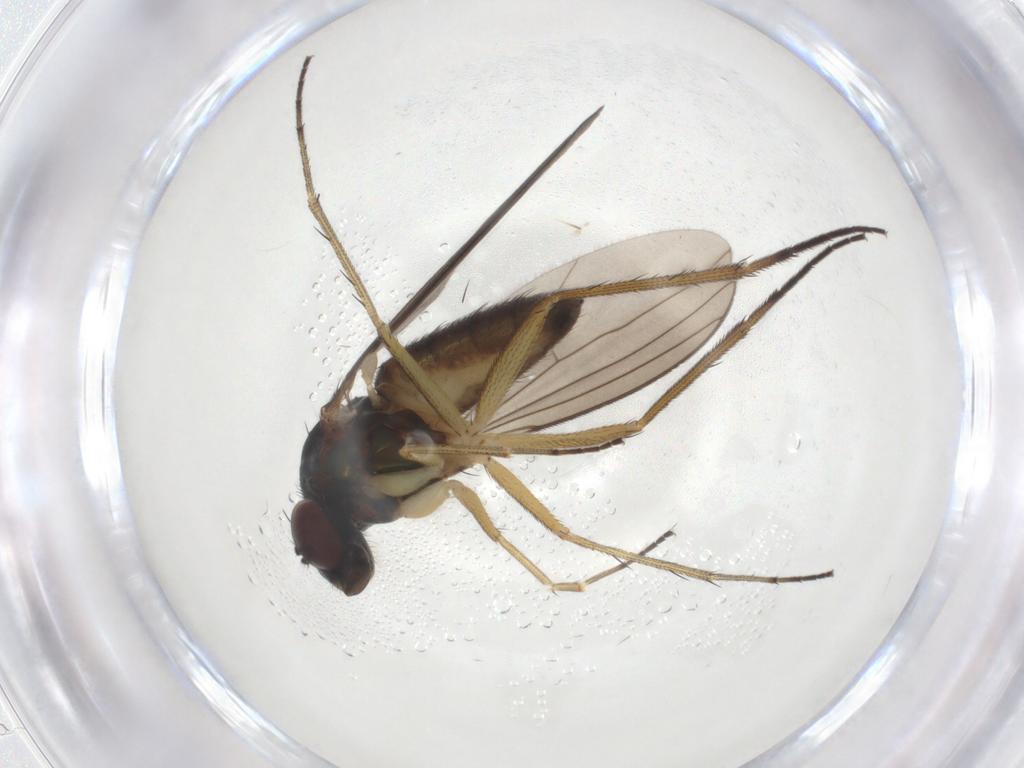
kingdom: Animalia
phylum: Arthropoda
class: Insecta
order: Diptera
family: Dolichopodidae
